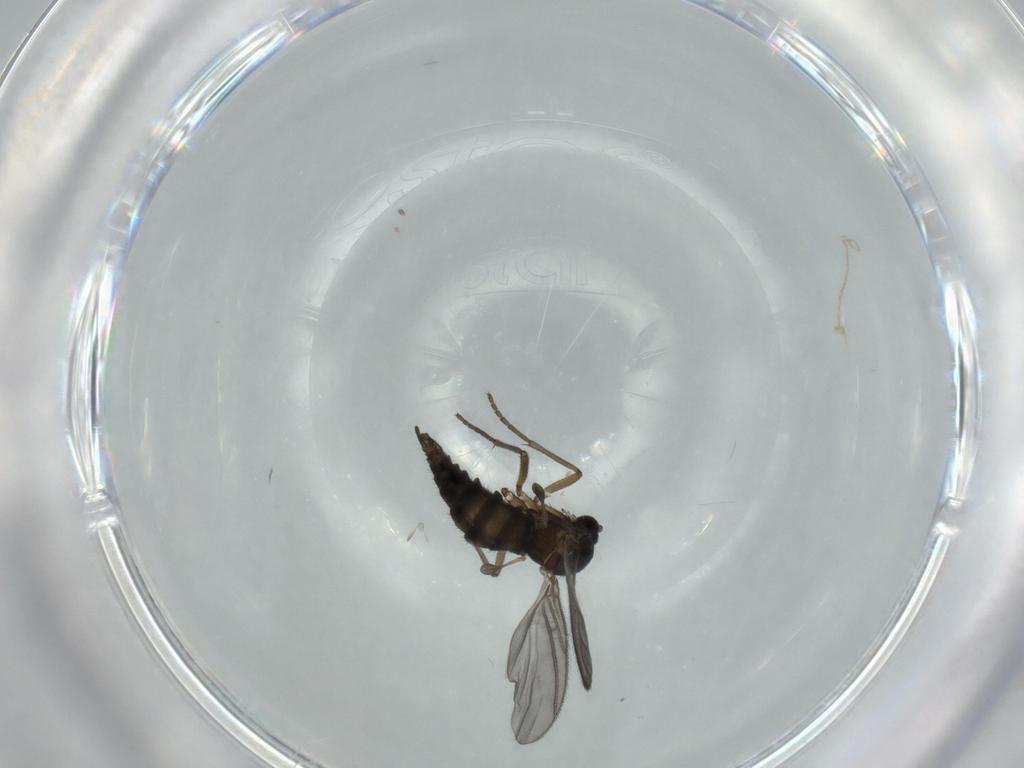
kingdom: Animalia
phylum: Arthropoda
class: Insecta
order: Diptera
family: Sciaridae
